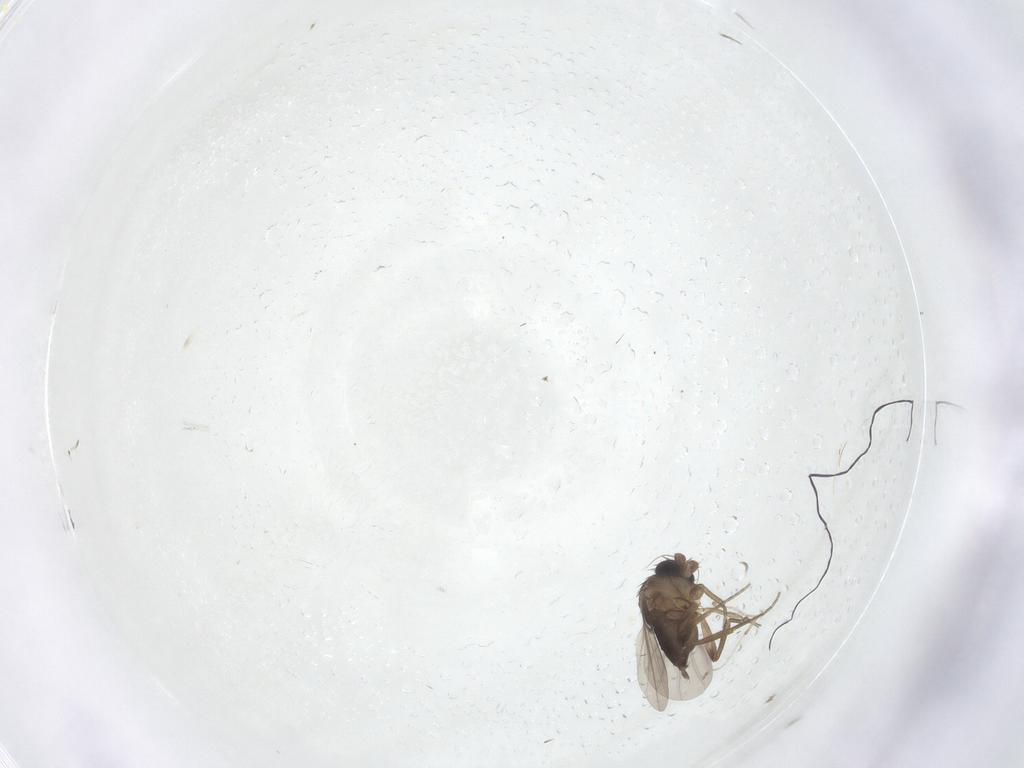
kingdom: Animalia
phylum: Arthropoda
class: Insecta
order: Diptera
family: Phoridae
